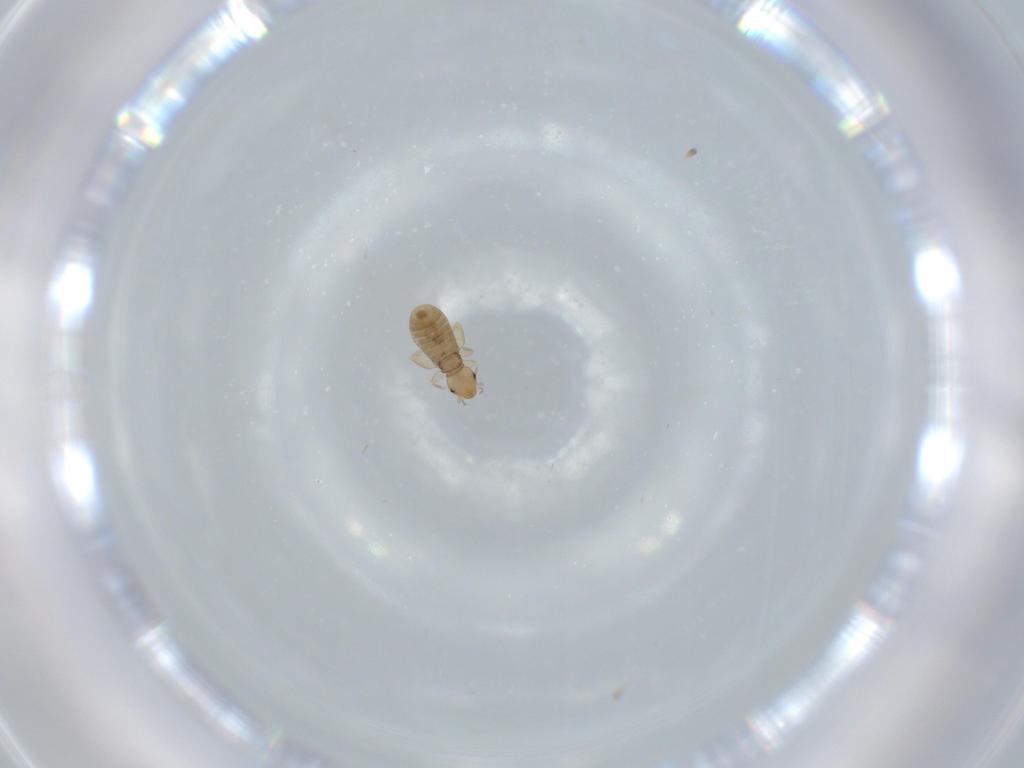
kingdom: Animalia
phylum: Arthropoda
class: Insecta
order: Psocodea
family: Liposcelididae
